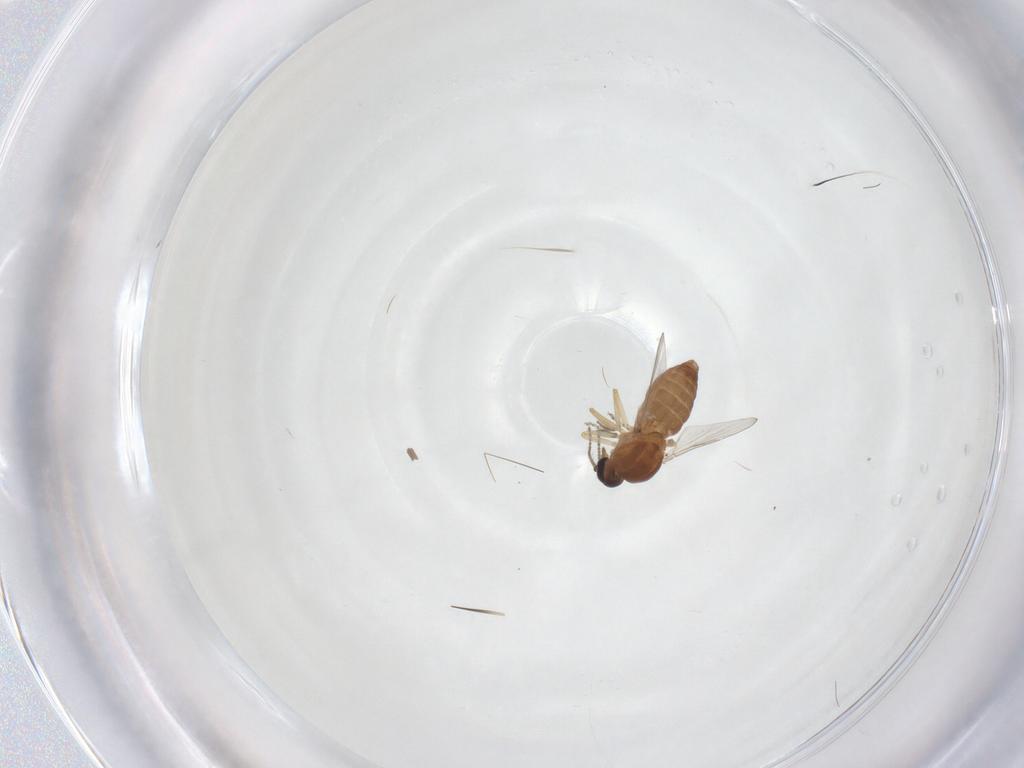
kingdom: Animalia
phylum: Arthropoda
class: Insecta
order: Diptera
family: Ceratopogonidae
